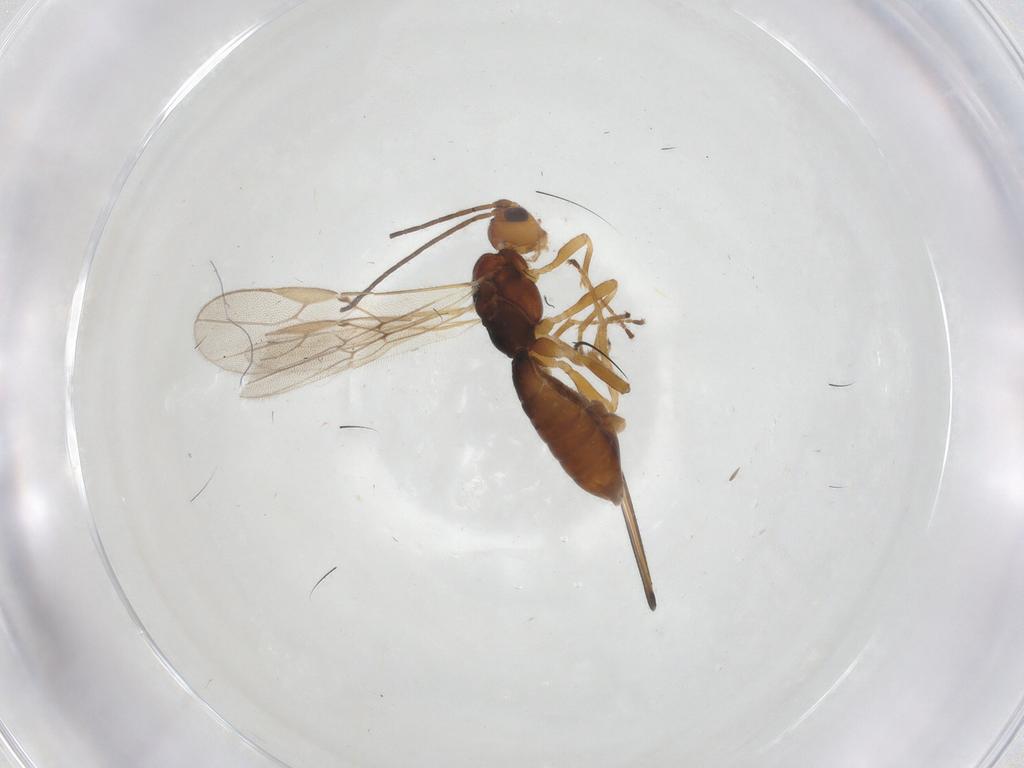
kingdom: Animalia
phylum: Arthropoda
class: Insecta
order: Hymenoptera
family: Braconidae
